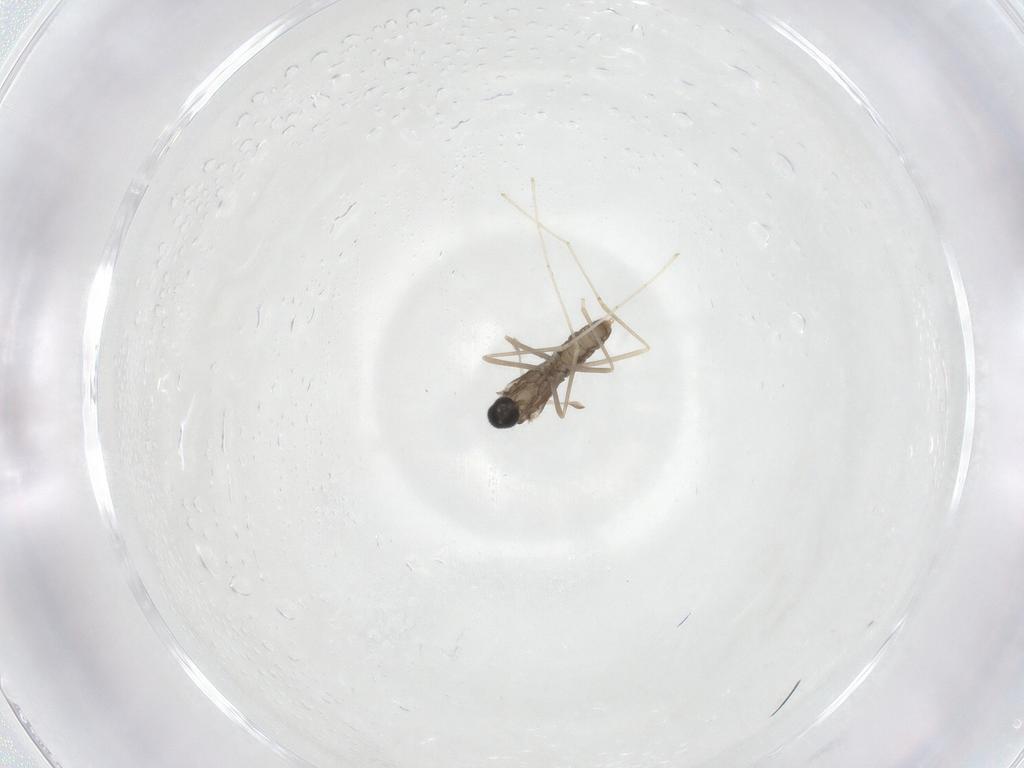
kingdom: Animalia
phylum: Arthropoda
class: Insecta
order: Diptera
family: Cecidomyiidae
